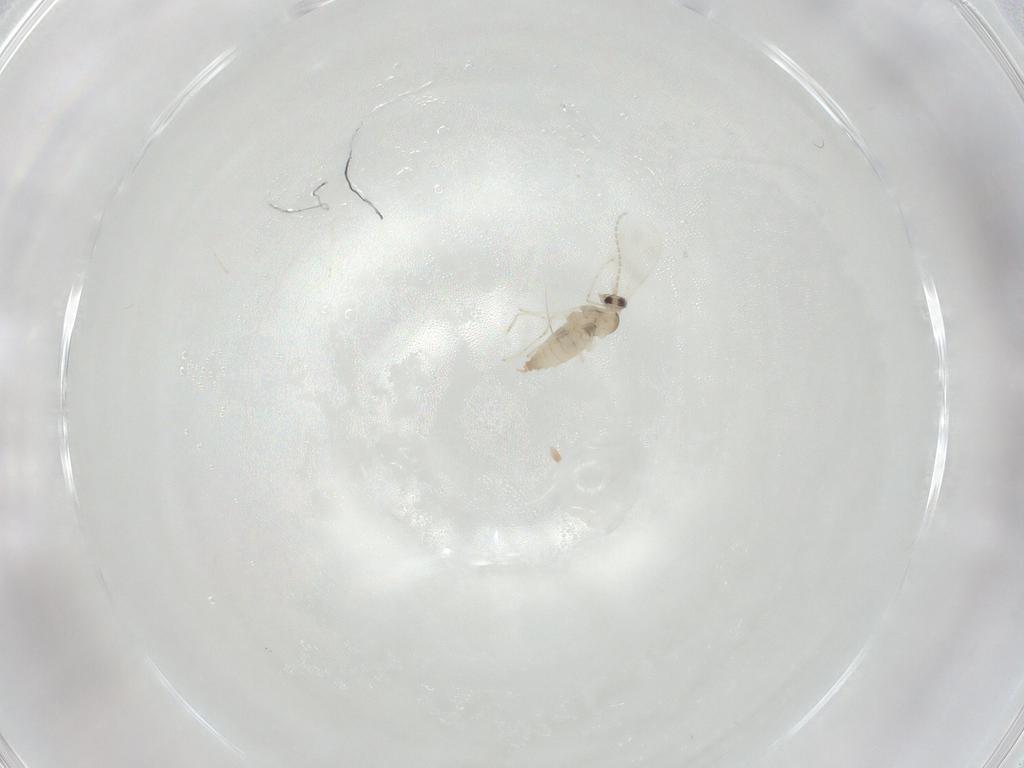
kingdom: Animalia
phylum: Arthropoda
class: Insecta
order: Diptera
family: Cecidomyiidae
